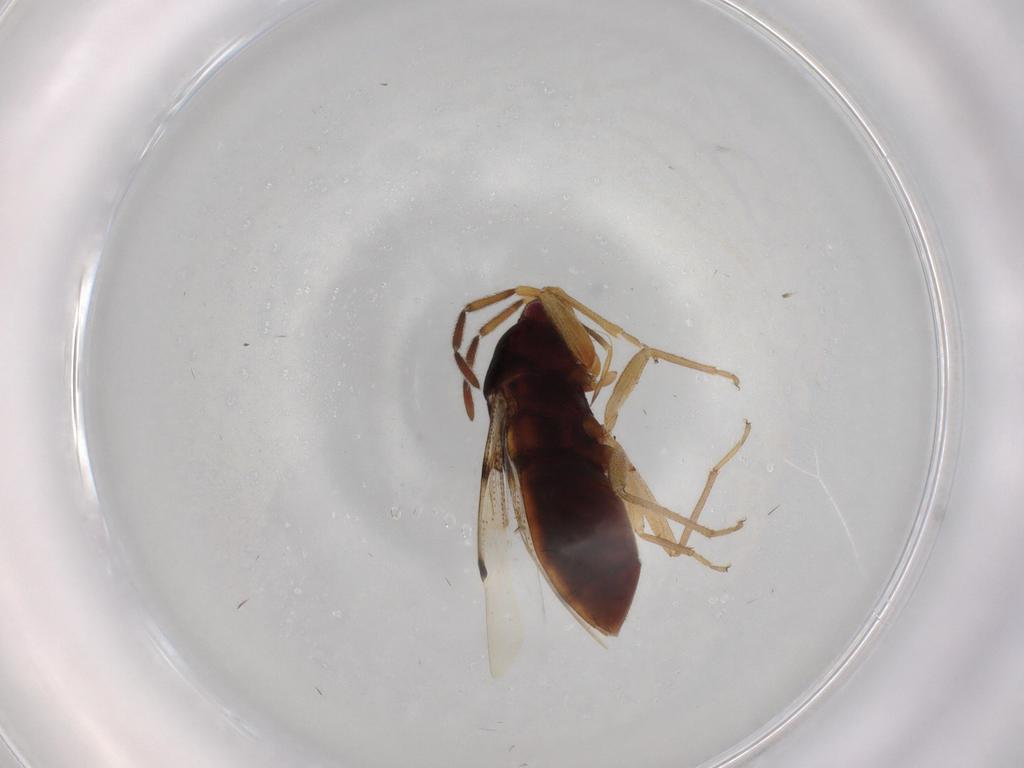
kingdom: Animalia
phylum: Arthropoda
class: Insecta
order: Hemiptera
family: Rhyparochromidae
